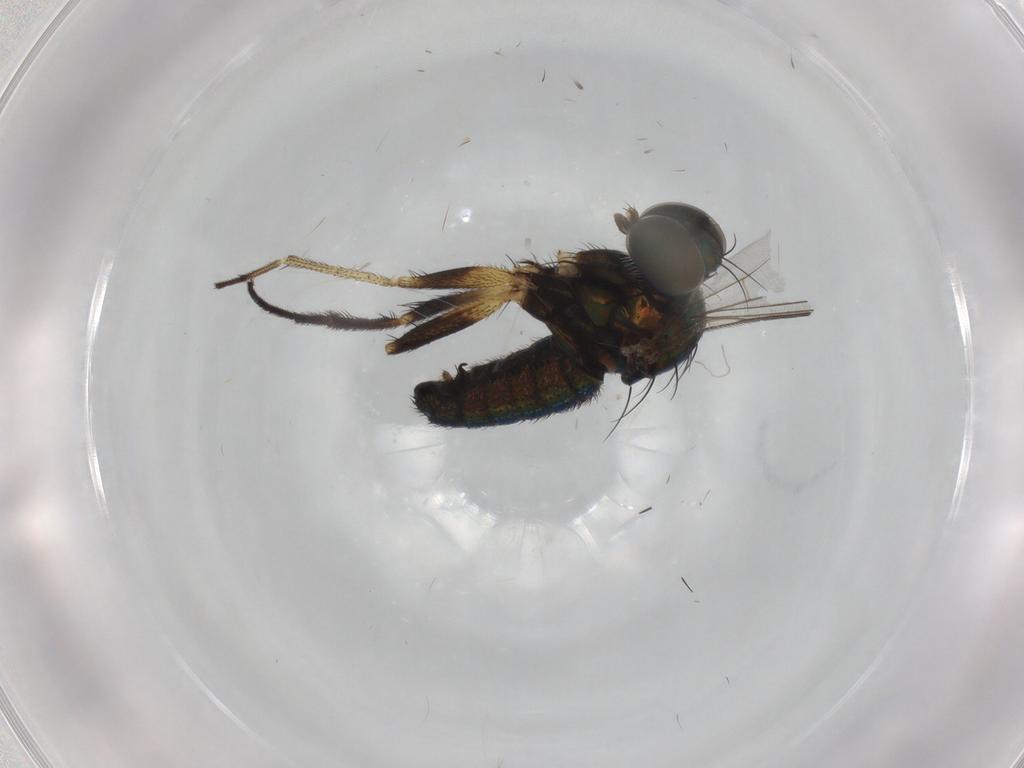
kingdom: Animalia
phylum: Arthropoda
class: Insecta
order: Diptera
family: Dolichopodidae
